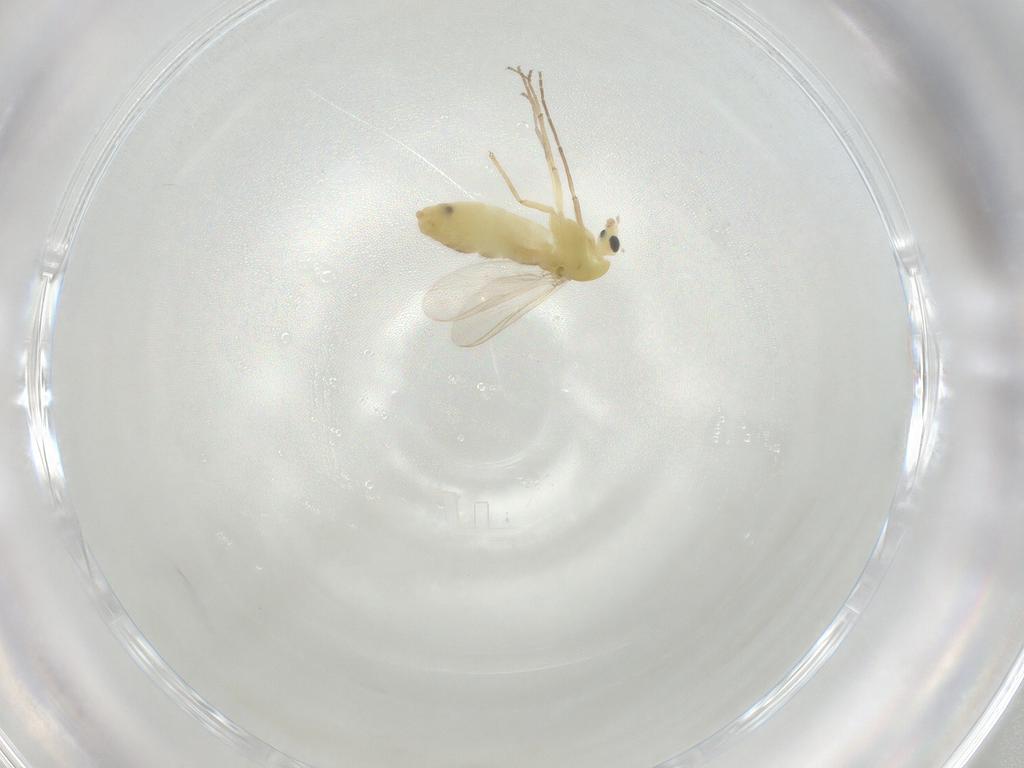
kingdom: Animalia
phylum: Arthropoda
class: Insecta
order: Diptera
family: Chironomidae
